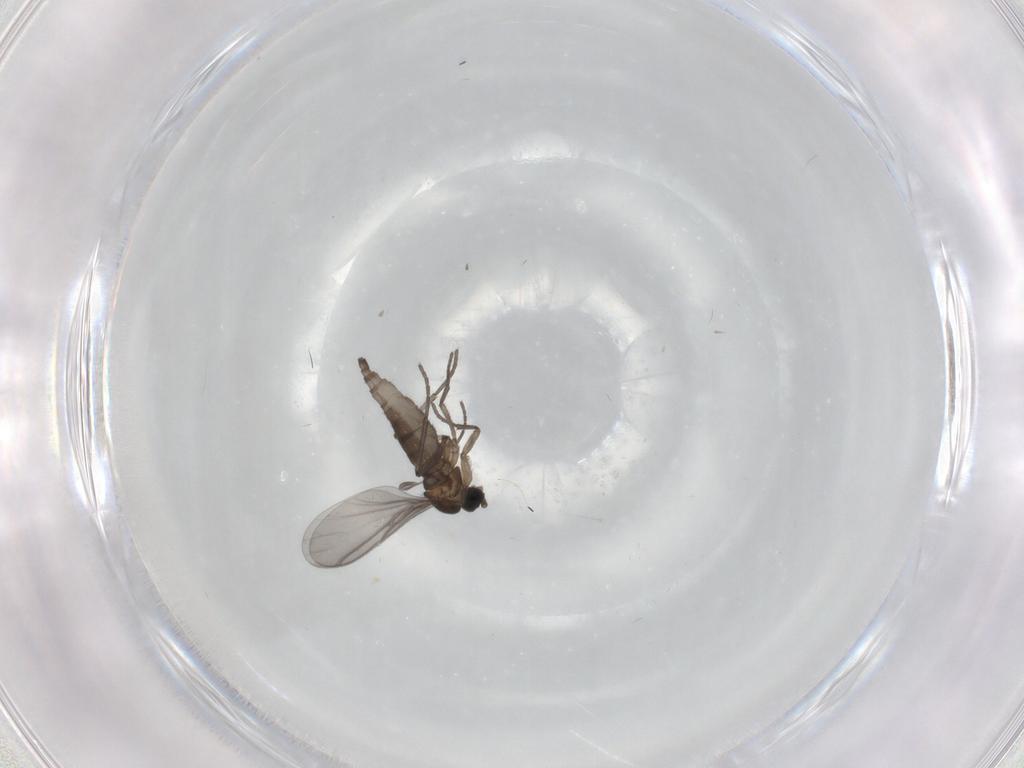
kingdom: Animalia
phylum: Arthropoda
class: Insecta
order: Diptera
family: Sciaridae
